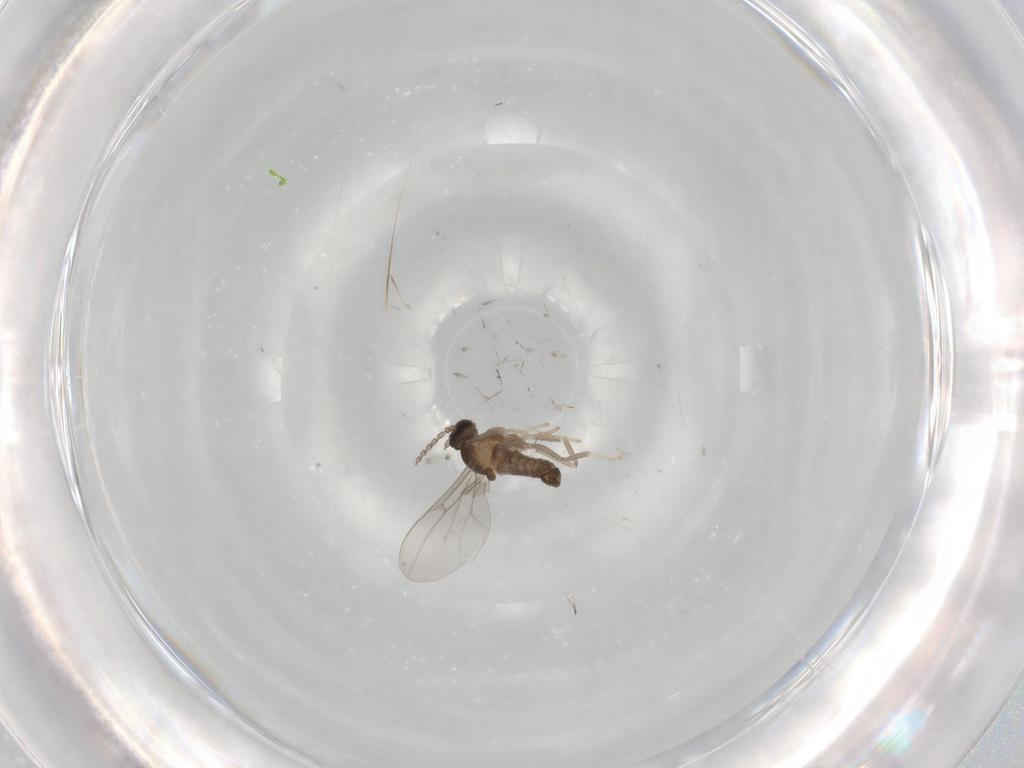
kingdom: Animalia
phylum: Arthropoda
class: Insecta
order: Diptera
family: Cecidomyiidae
